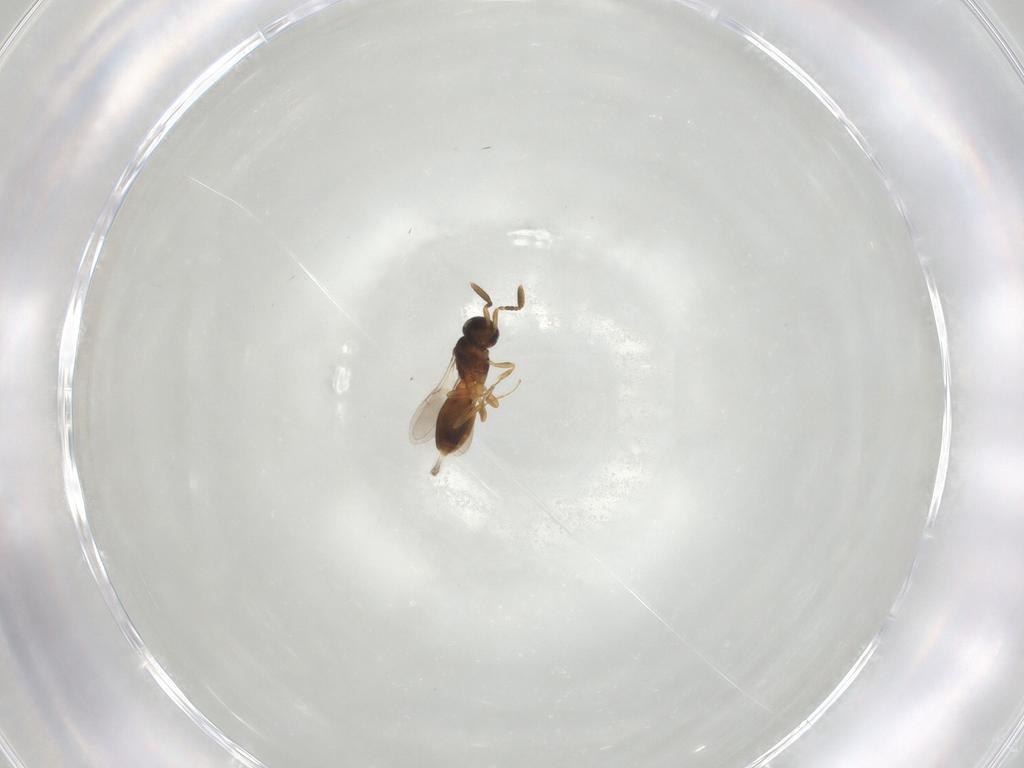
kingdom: Animalia
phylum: Arthropoda
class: Insecta
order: Hymenoptera
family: Scelionidae
